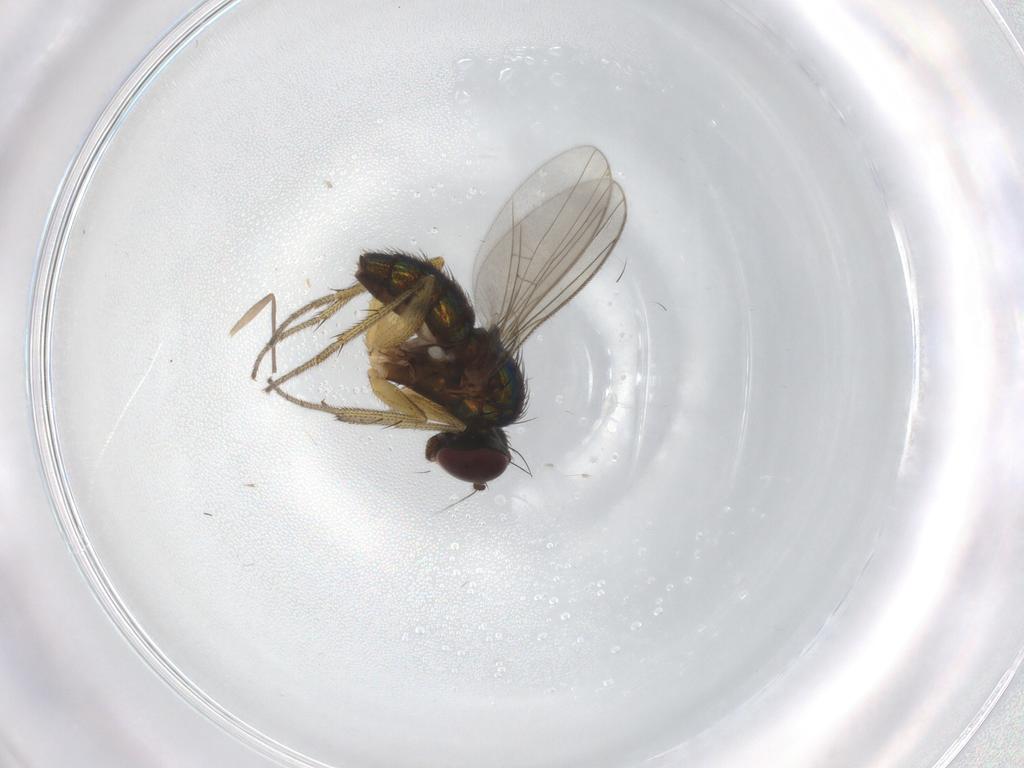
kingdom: Animalia
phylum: Arthropoda
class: Insecta
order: Diptera
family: Dolichopodidae
